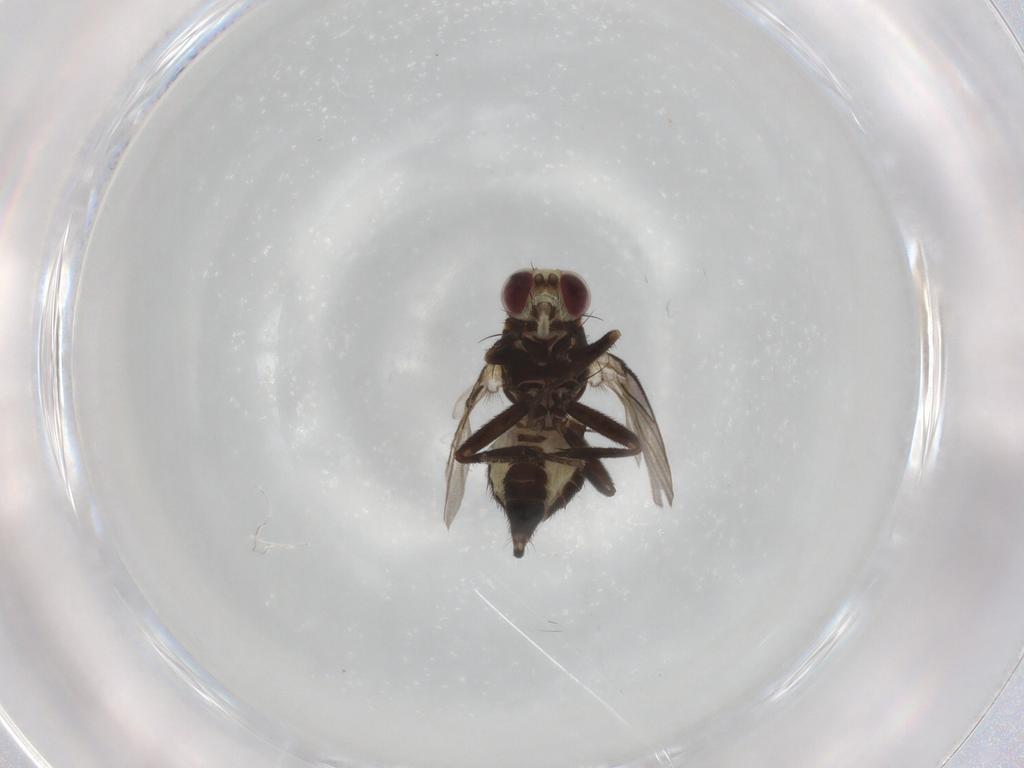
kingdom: Animalia
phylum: Arthropoda
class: Insecta
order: Diptera
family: Agromyzidae
